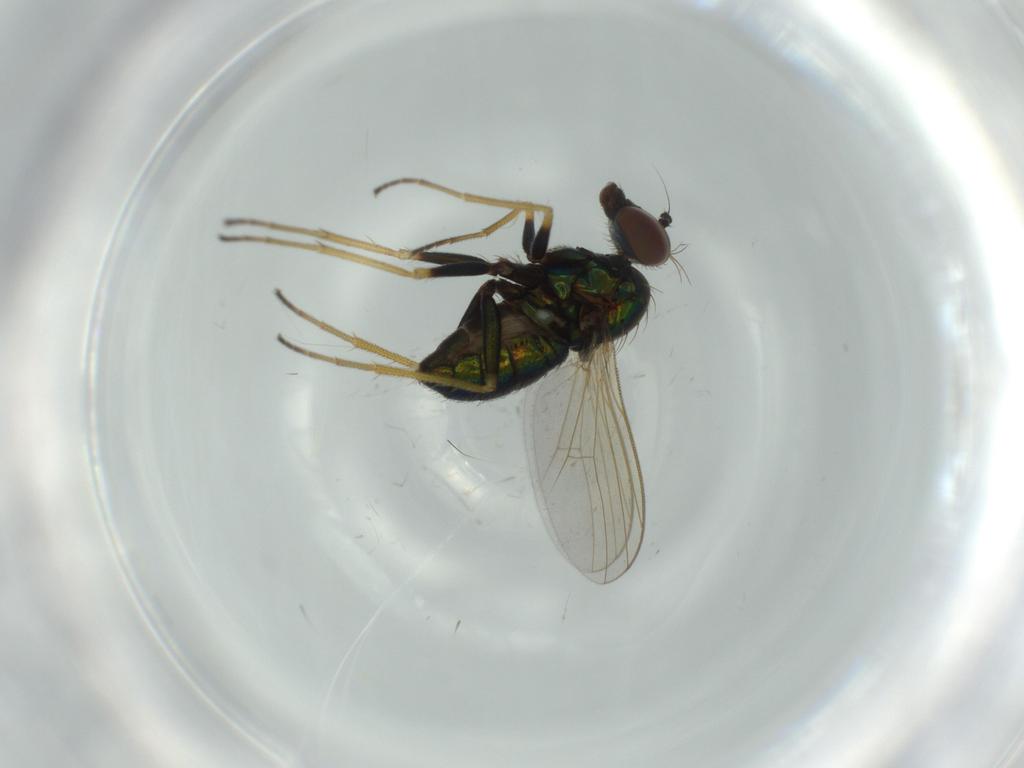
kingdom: Animalia
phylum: Arthropoda
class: Insecta
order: Diptera
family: Dolichopodidae
